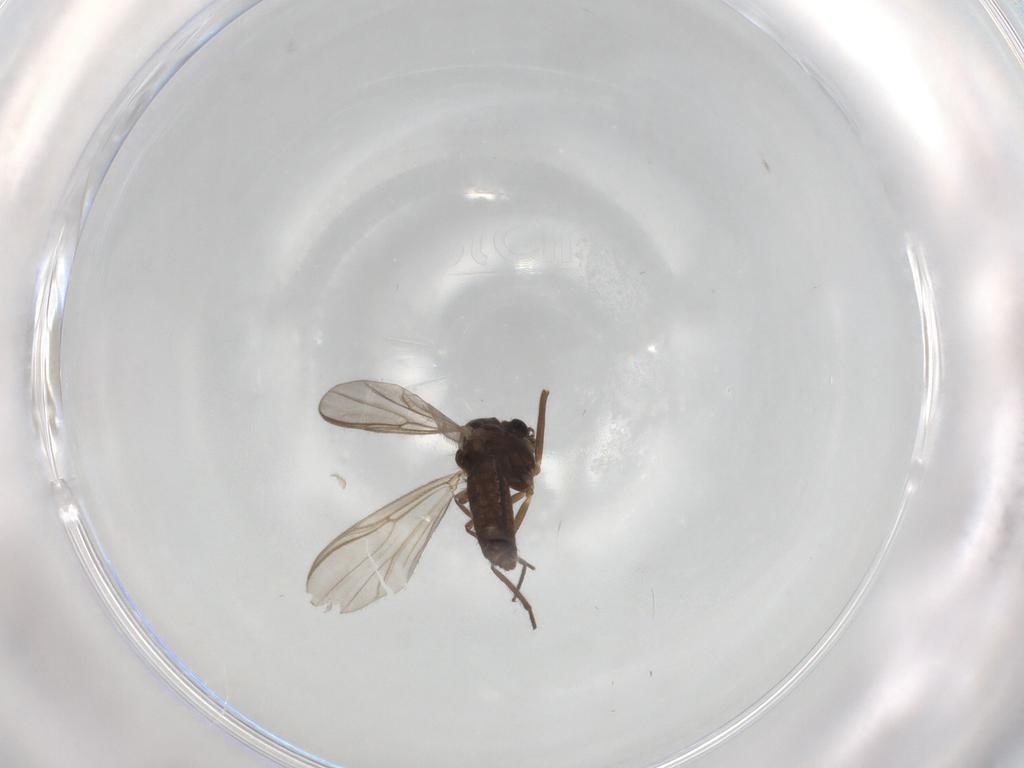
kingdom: Animalia
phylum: Arthropoda
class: Insecta
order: Diptera
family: Chironomidae
